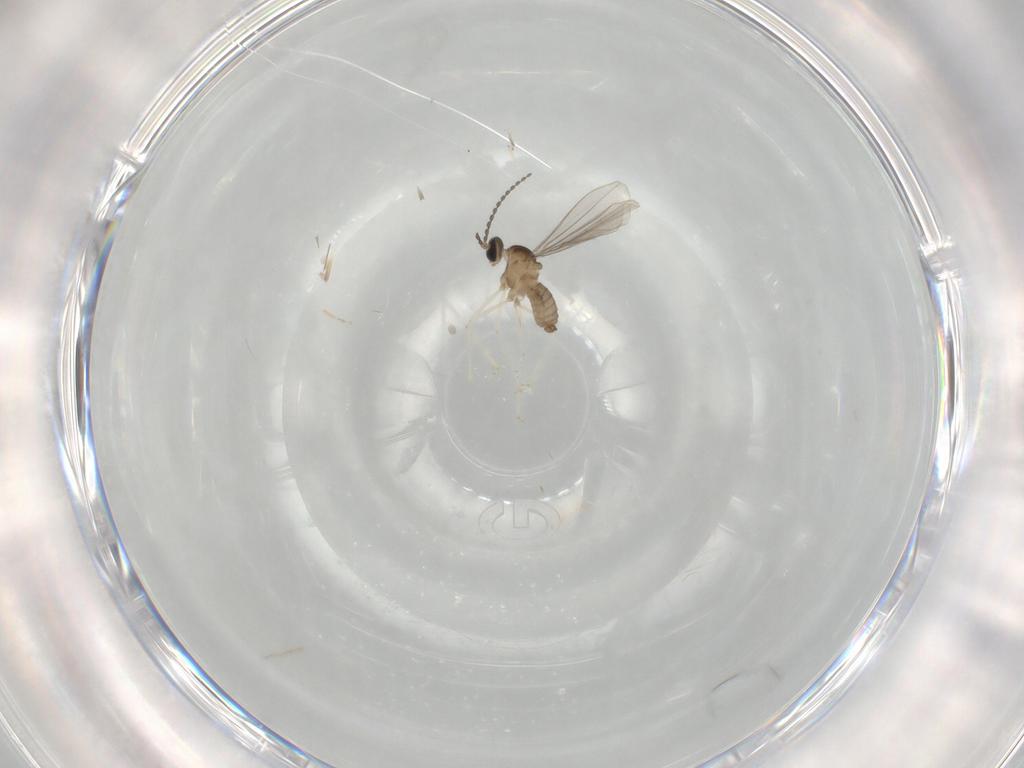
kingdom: Animalia
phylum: Arthropoda
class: Insecta
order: Diptera
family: Cecidomyiidae
